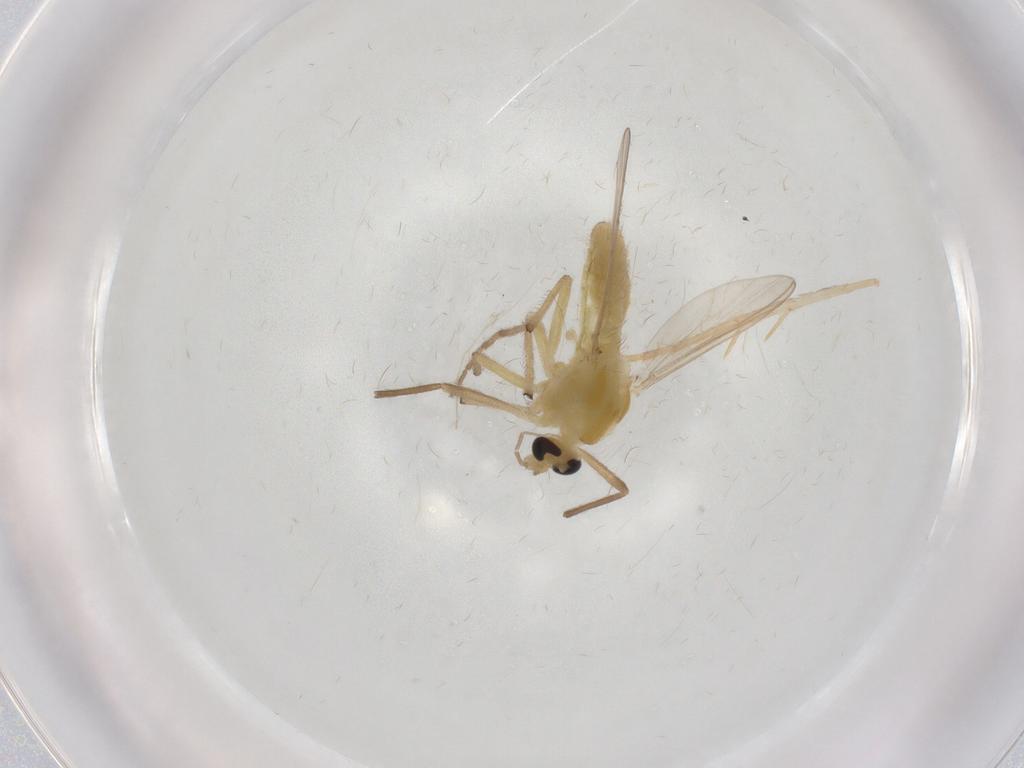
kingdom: Animalia
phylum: Arthropoda
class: Insecta
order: Diptera
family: Chironomidae
